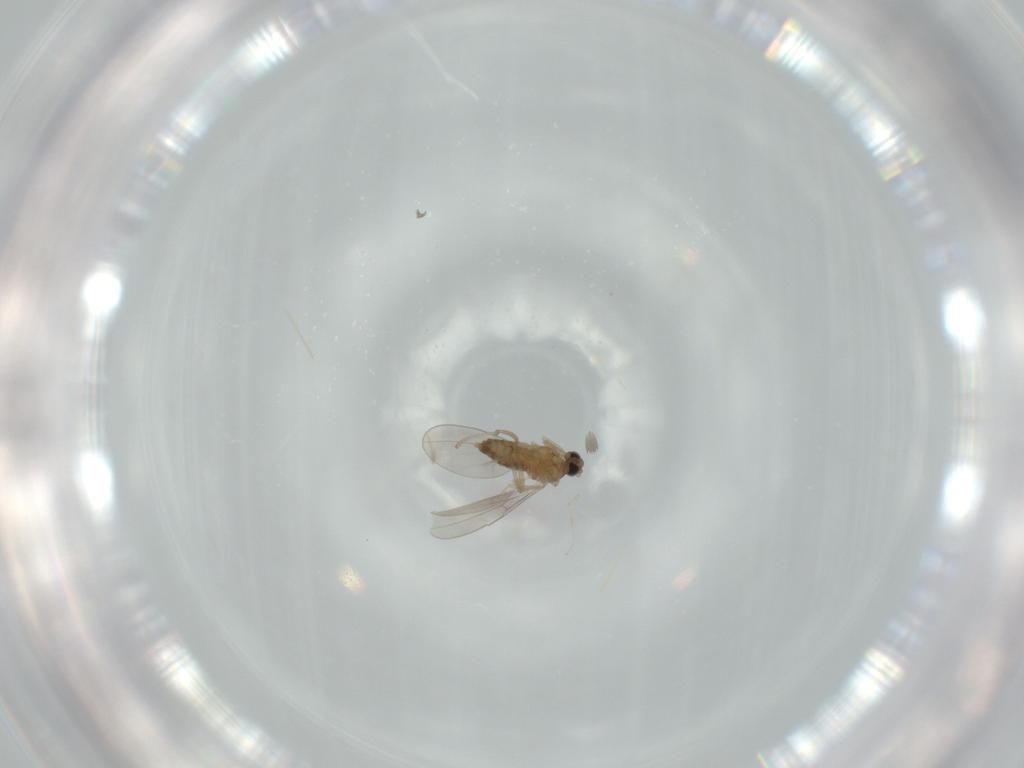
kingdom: Animalia
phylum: Arthropoda
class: Insecta
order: Diptera
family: Cecidomyiidae
